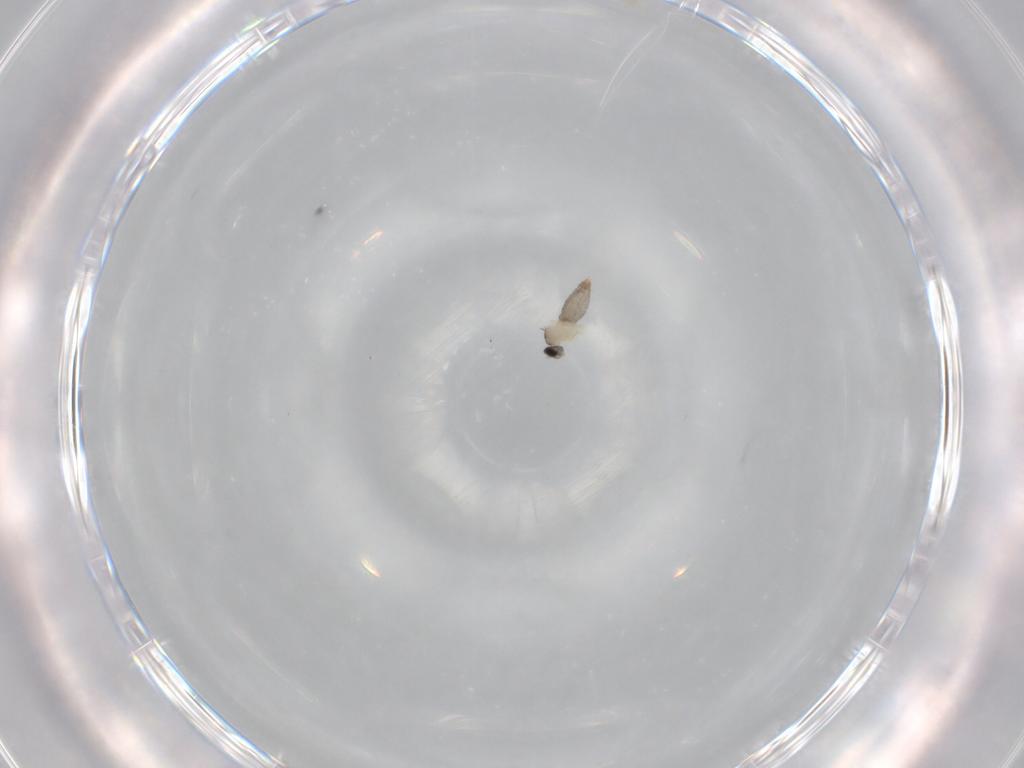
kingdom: Animalia
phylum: Arthropoda
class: Insecta
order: Diptera
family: Cecidomyiidae
